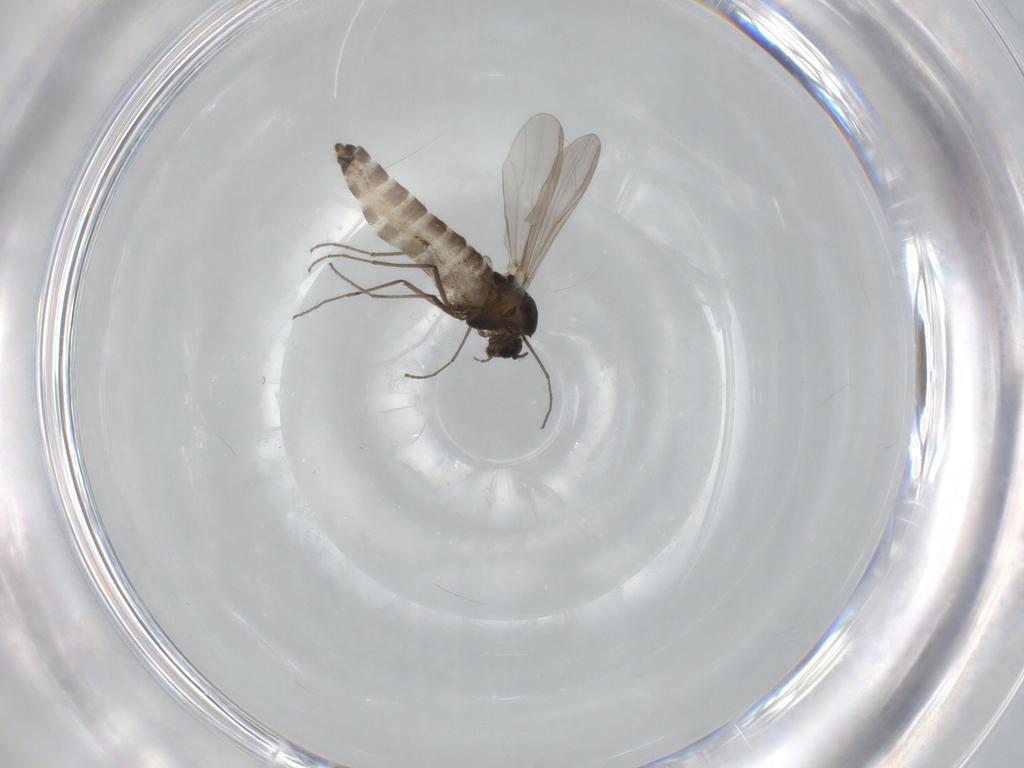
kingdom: Animalia
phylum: Arthropoda
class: Insecta
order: Diptera
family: Chironomidae
